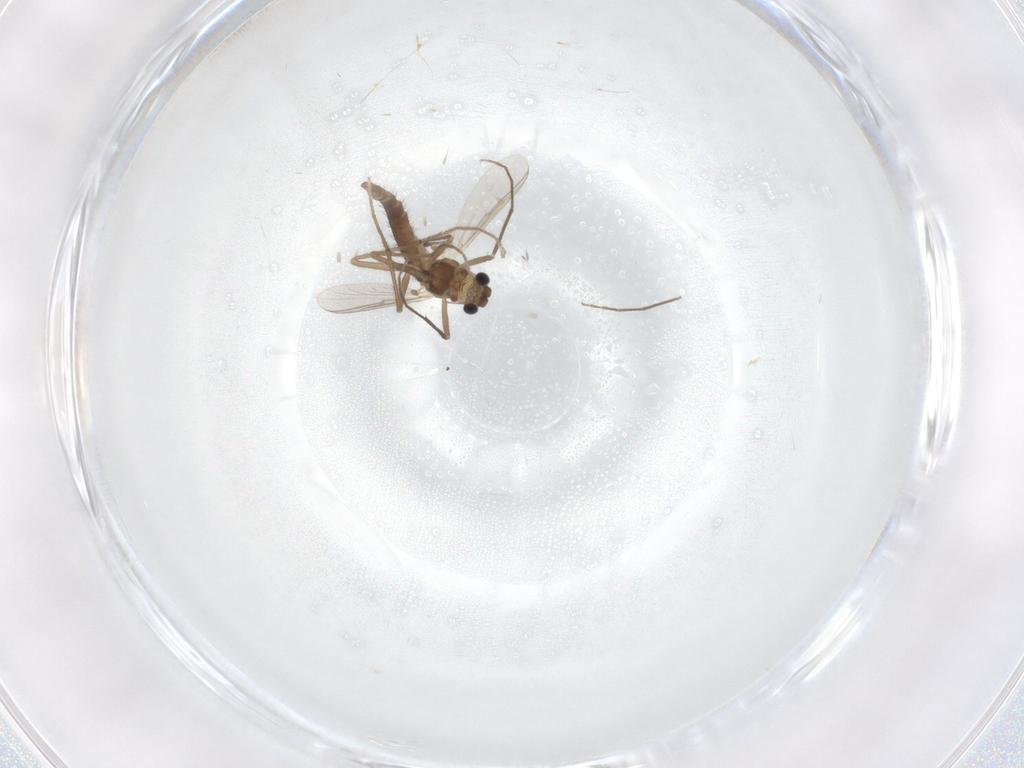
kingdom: Animalia
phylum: Arthropoda
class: Insecta
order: Diptera
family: Chironomidae
